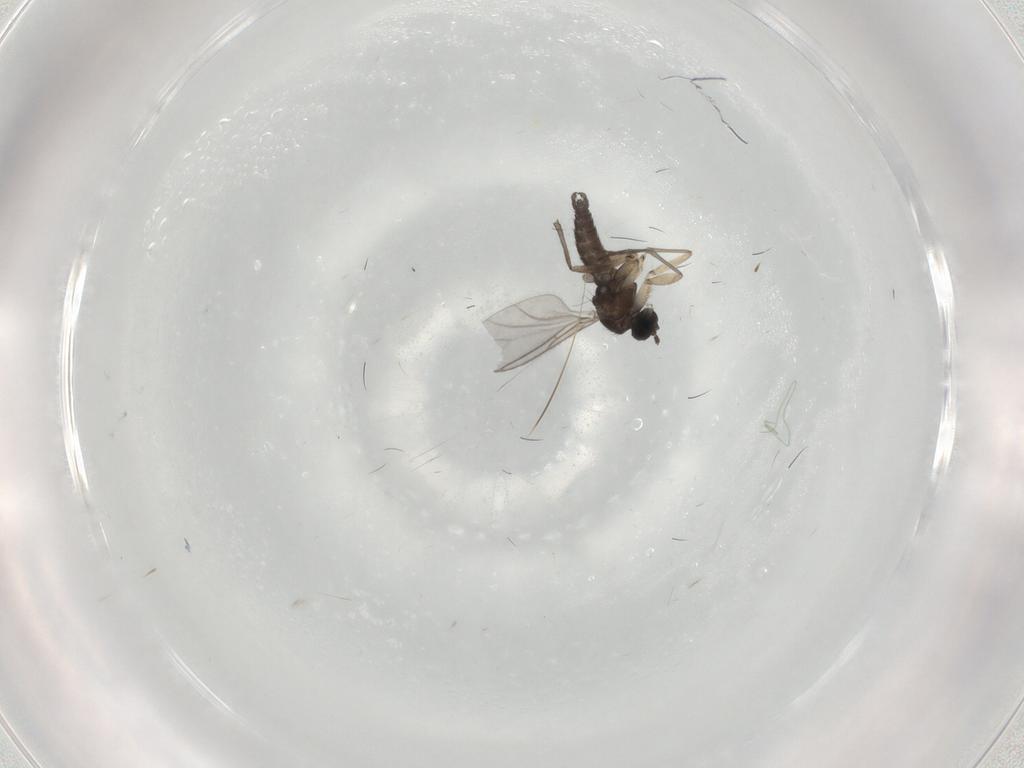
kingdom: Animalia
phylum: Arthropoda
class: Insecta
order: Diptera
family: Sciaridae
